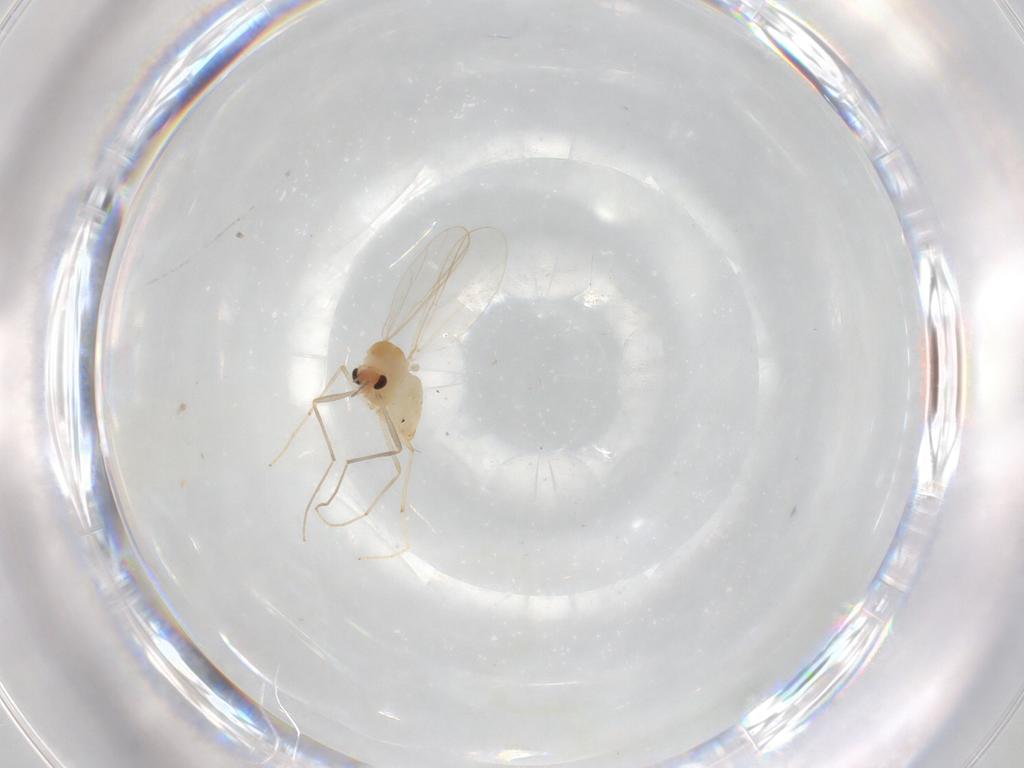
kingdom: Animalia
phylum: Arthropoda
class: Insecta
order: Diptera
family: Chironomidae
